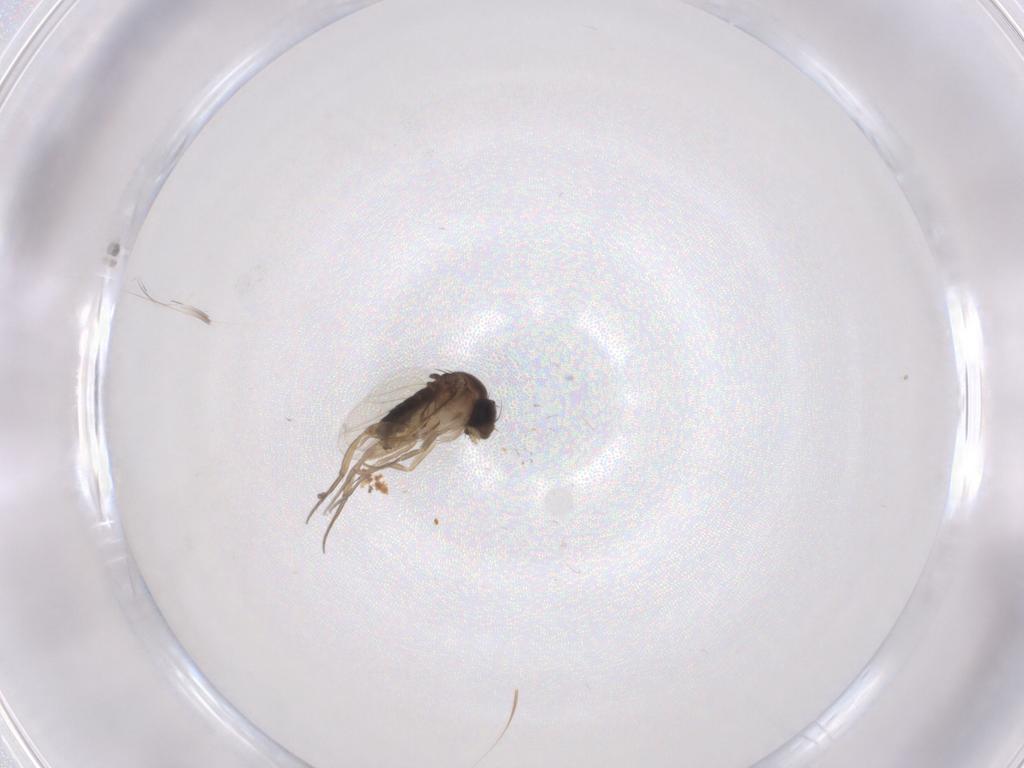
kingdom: Animalia
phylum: Arthropoda
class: Insecta
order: Diptera
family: Phoridae
